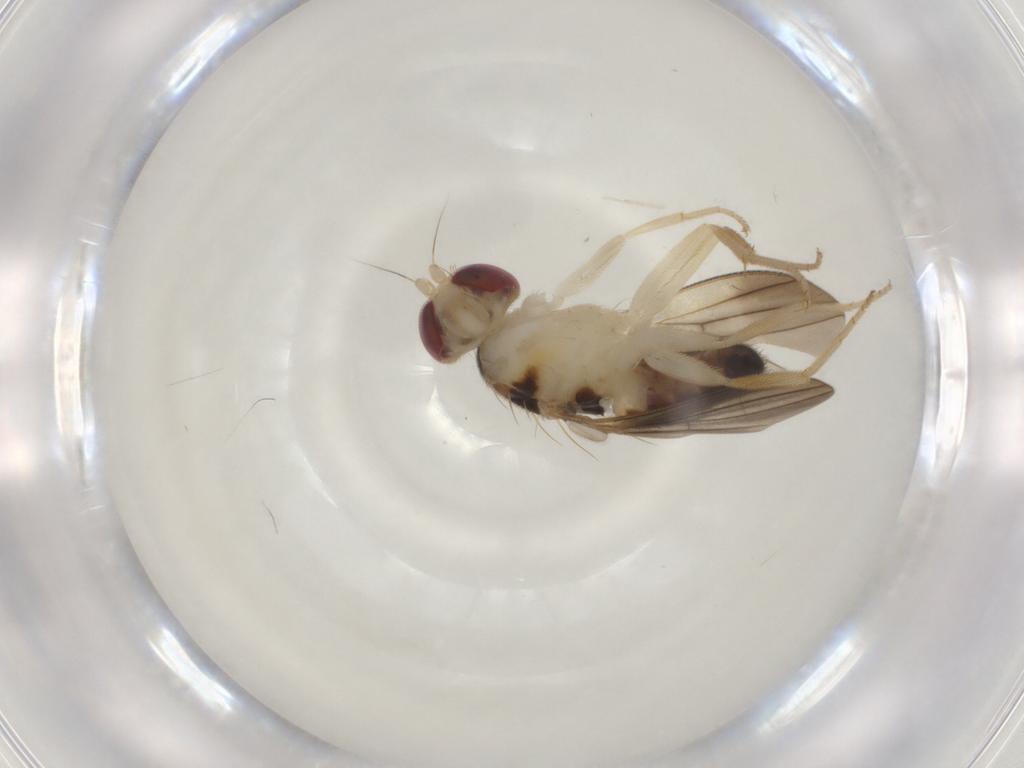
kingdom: Animalia
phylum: Arthropoda
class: Insecta
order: Diptera
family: Clusiidae
